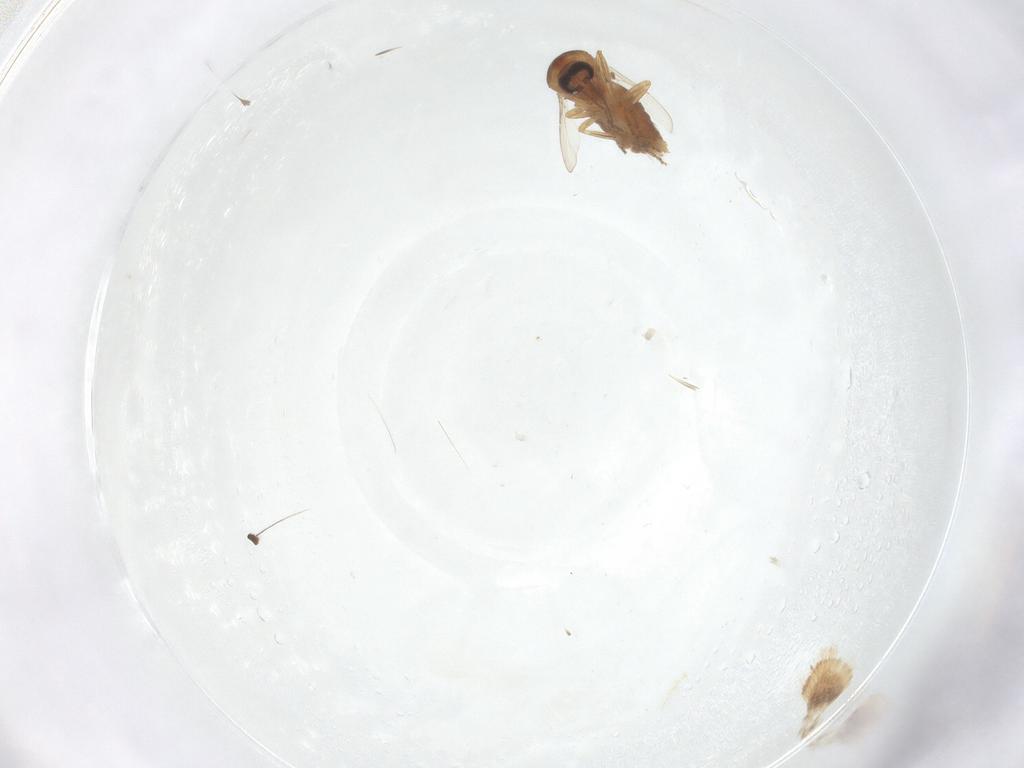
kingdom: Animalia
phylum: Arthropoda
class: Insecta
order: Diptera
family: Ceratopogonidae
